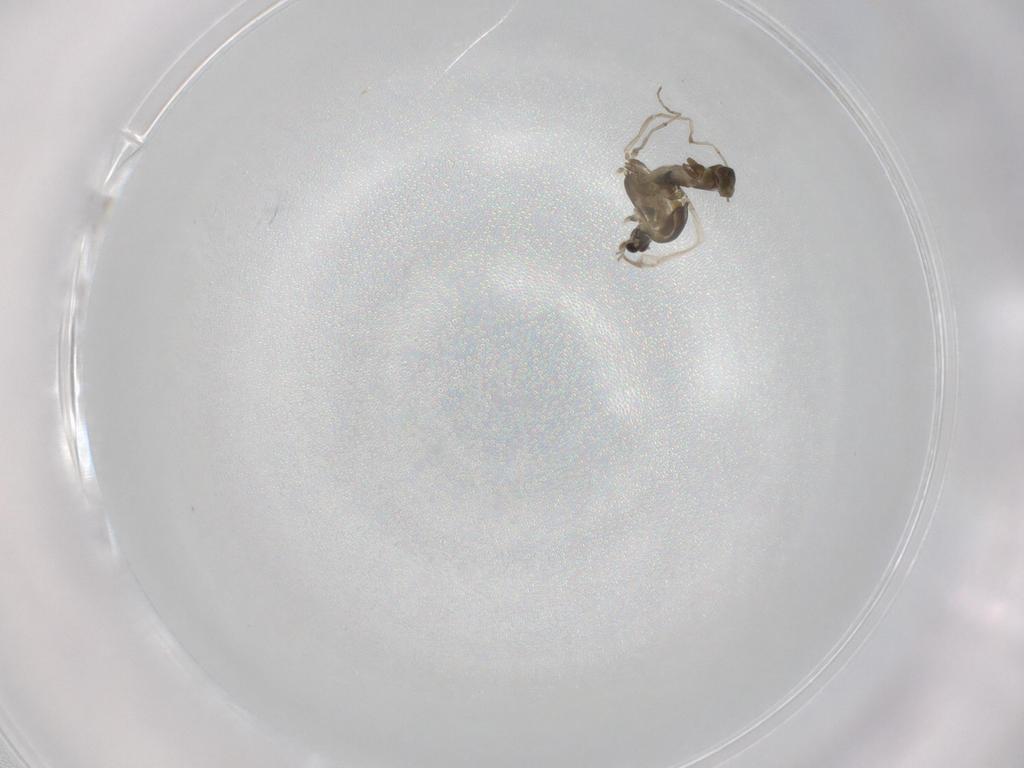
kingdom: Animalia
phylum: Arthropoda
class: Insecta
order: Diptera
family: Chironomidae
